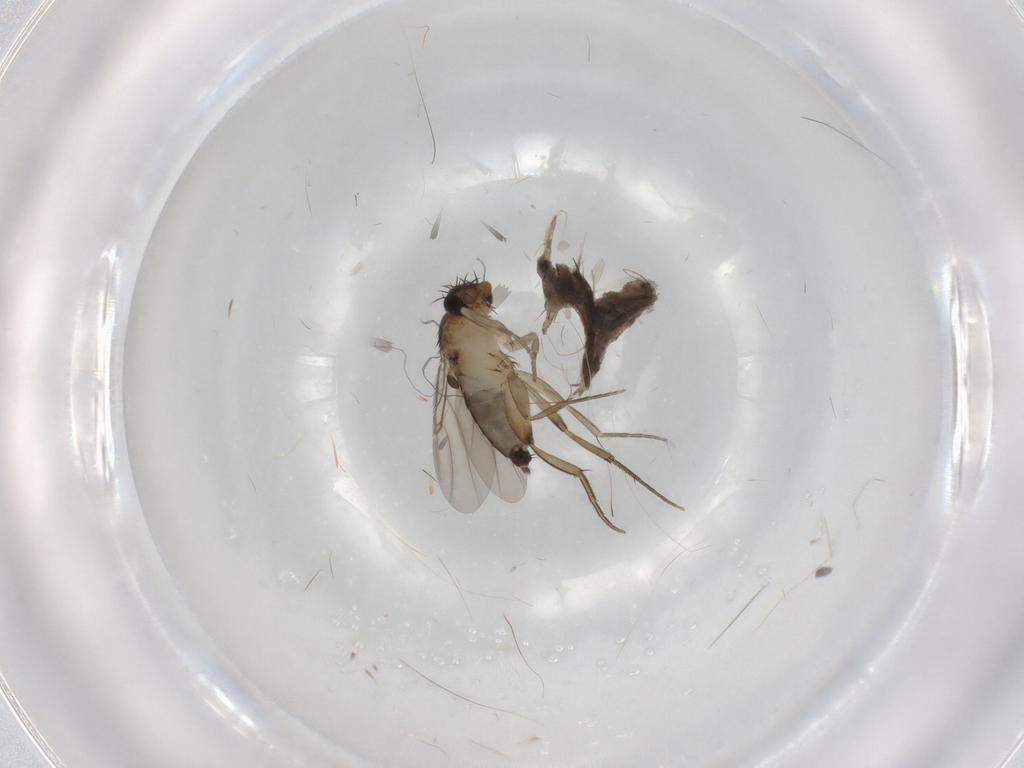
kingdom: Animalia
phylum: Arthropoda
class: Insecta
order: Diptera
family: Phoridae
